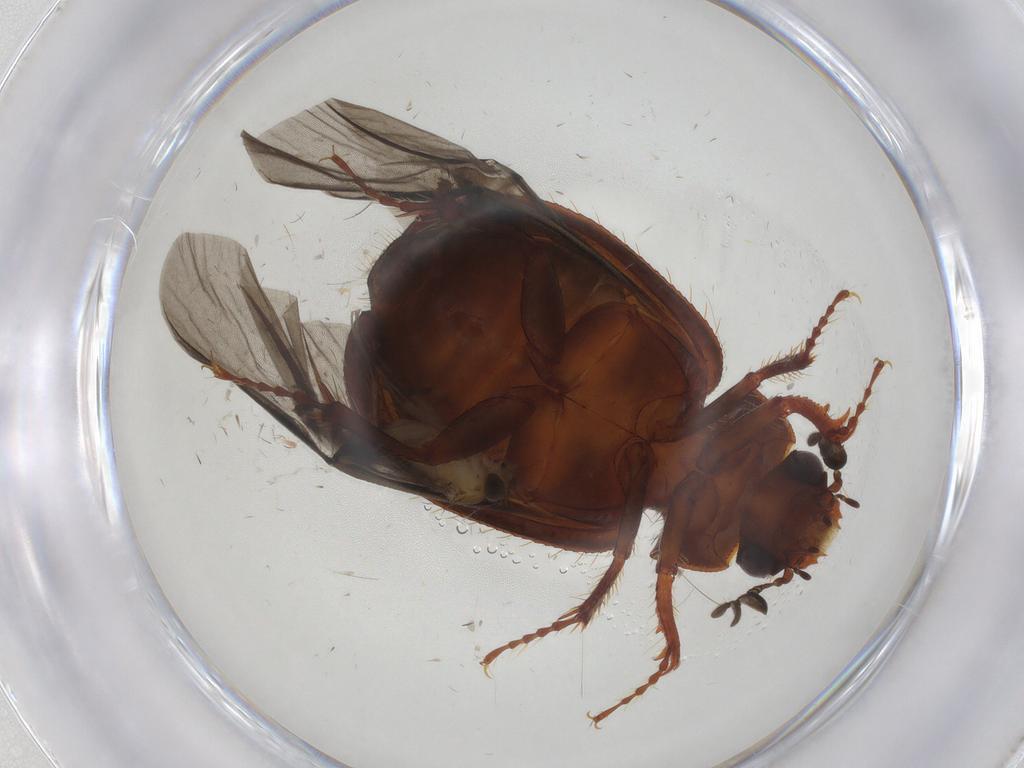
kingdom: Animalia
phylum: Arthropoda
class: Insecta
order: Coleoptera
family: Hybosoridae
